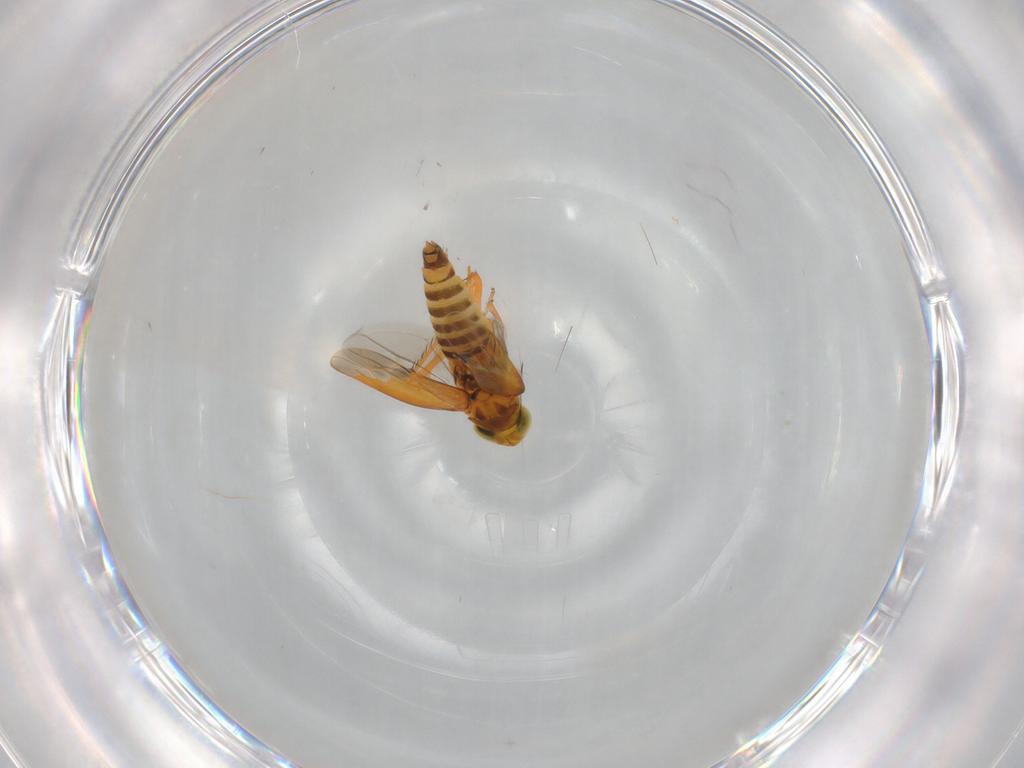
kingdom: Animalia
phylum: Arthropoda
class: Insecta
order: Hemiptera
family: Cicadellidae
